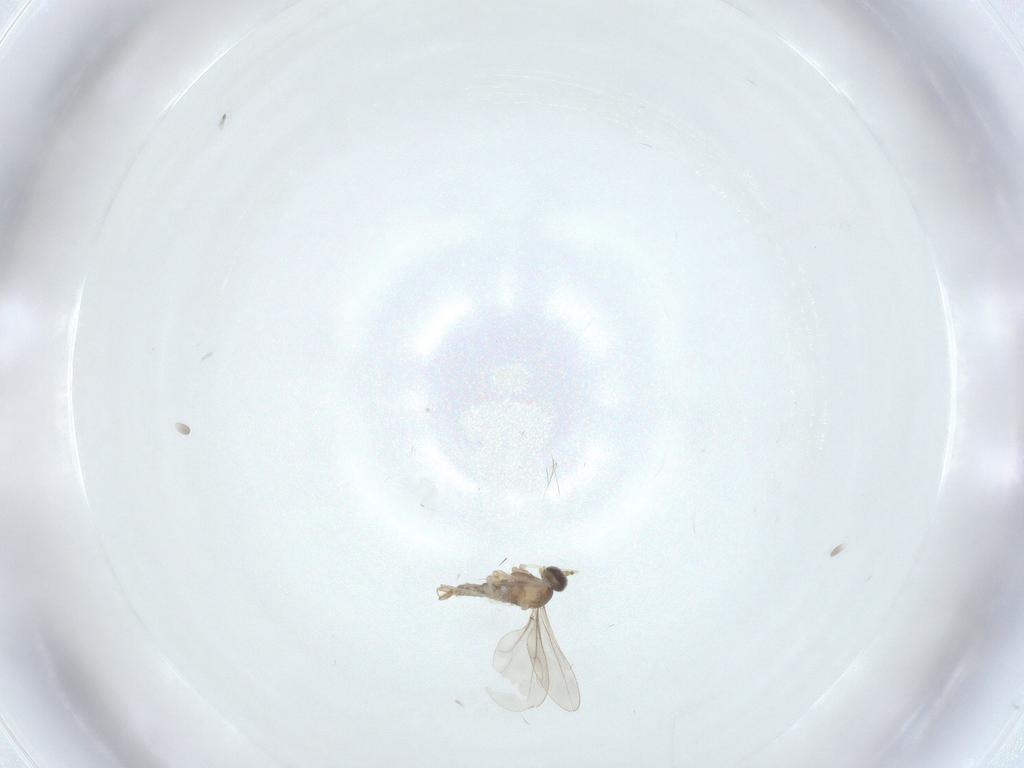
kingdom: Animalia
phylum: Arthropoda
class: Insecta
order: Diptera
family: Cecidomyiidae
